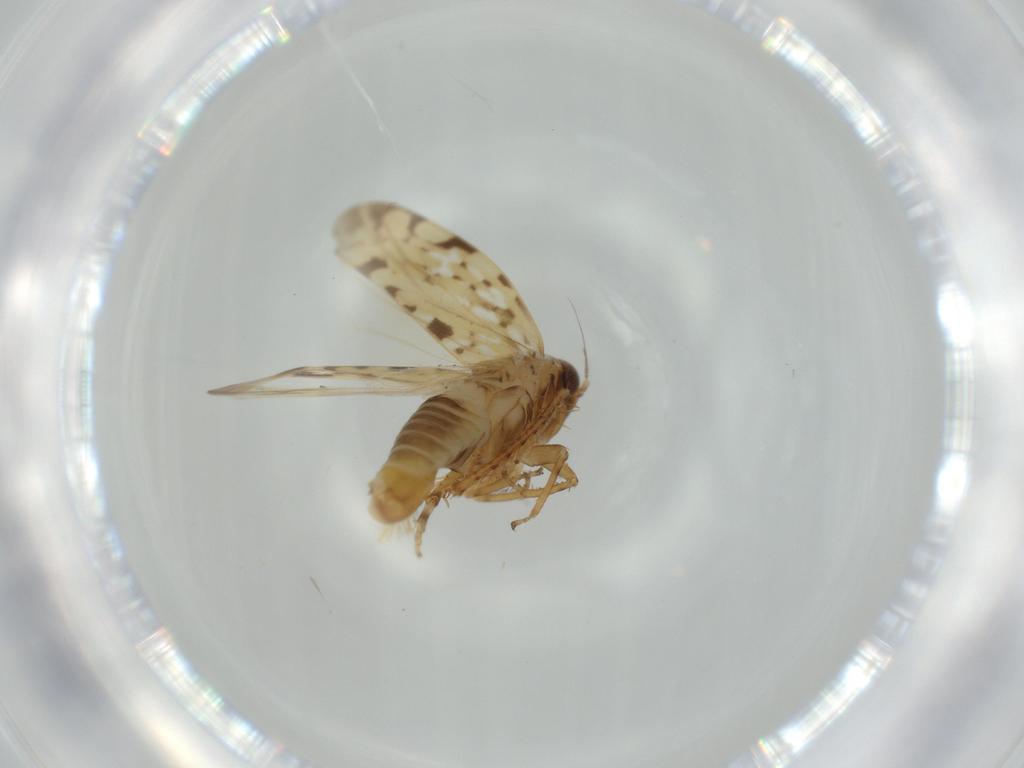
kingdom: Animalia
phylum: Arthropoda
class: Insecta
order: Hemiptera
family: Cicadellidae
